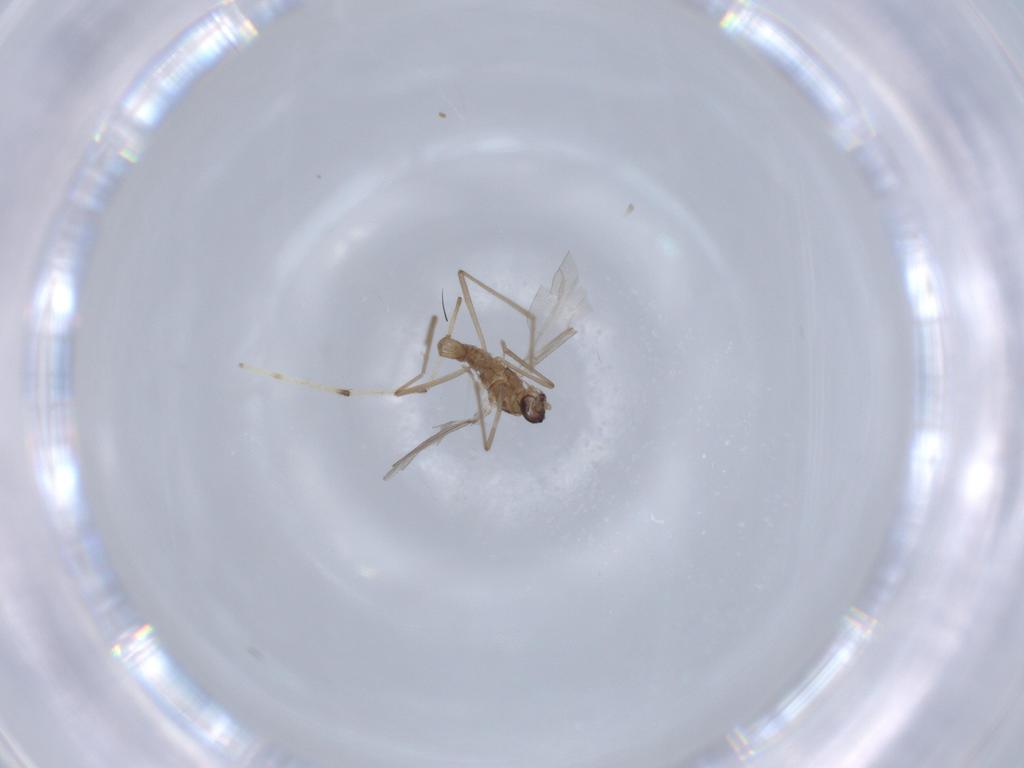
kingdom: Animalia
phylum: Arthropoda
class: Insecta
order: Diptera
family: Cecidomyiidae
